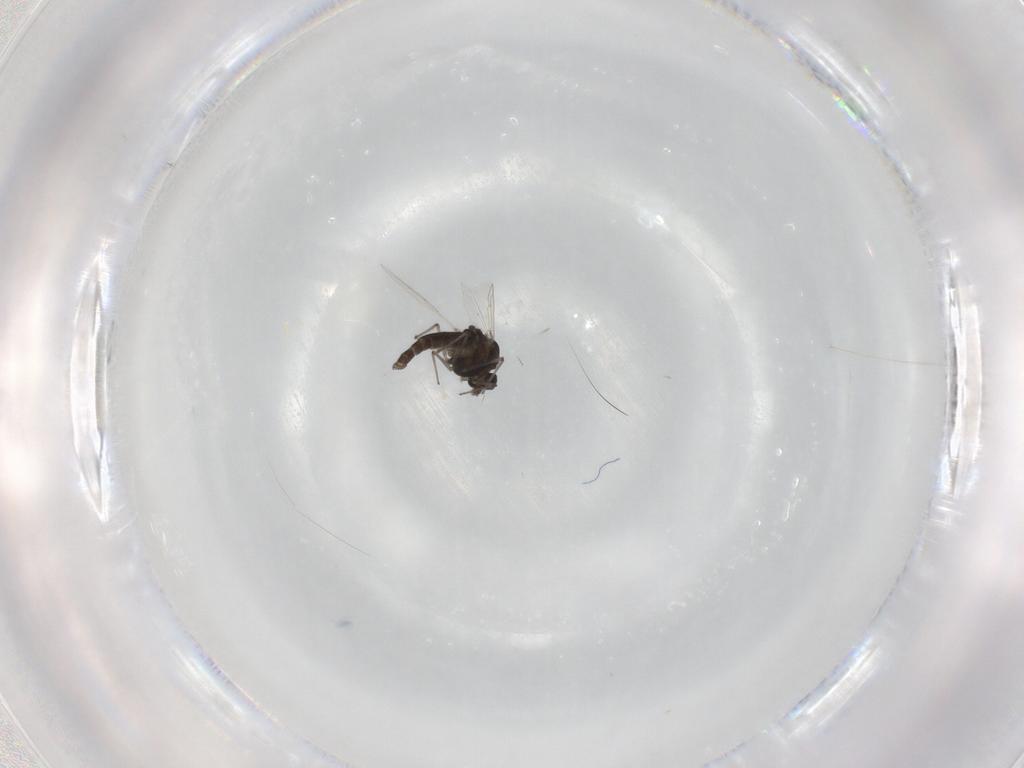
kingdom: Animalia
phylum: Arthropoda
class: Insecta
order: Diptera
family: Chironomidae
